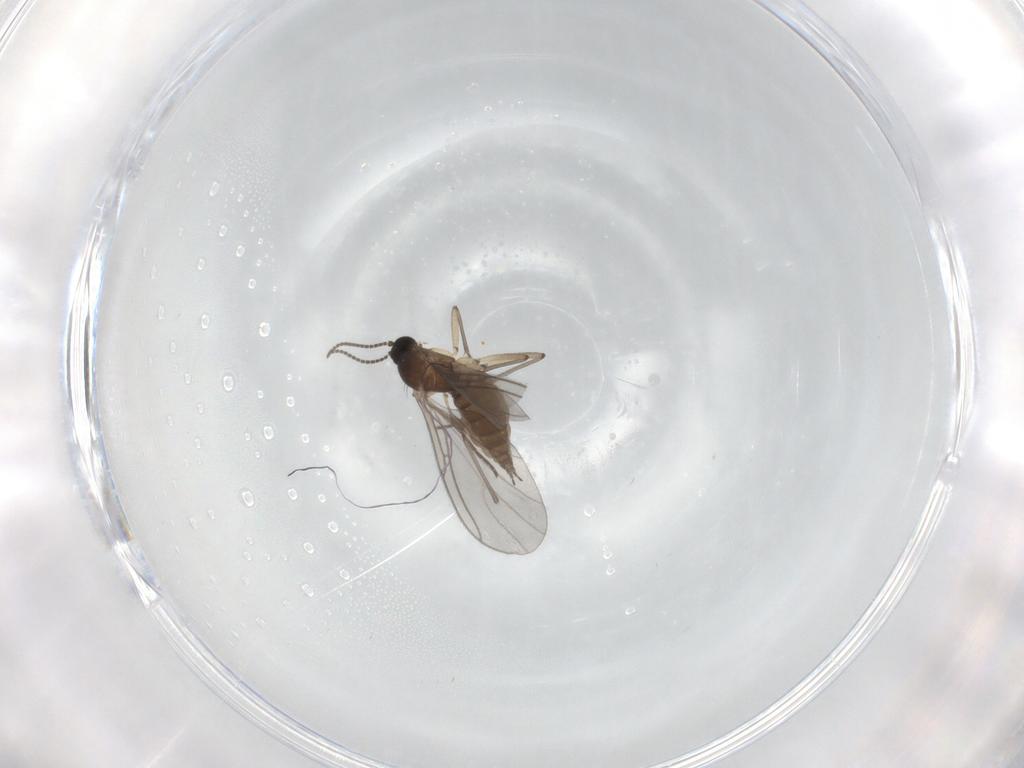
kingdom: Animalia
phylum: Arthropoda
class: Insecta
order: Diptera
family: Sciaridae
